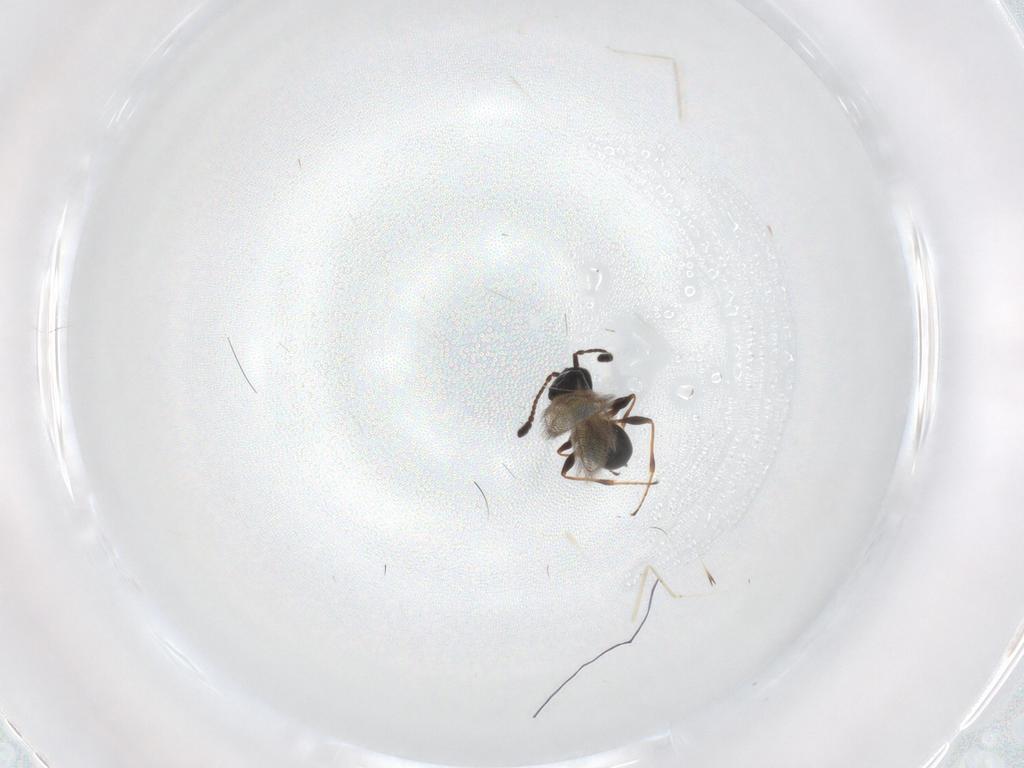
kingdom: Animalia
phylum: Arthropoda
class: Insecta
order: Hymenoptera
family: Diapriidae
